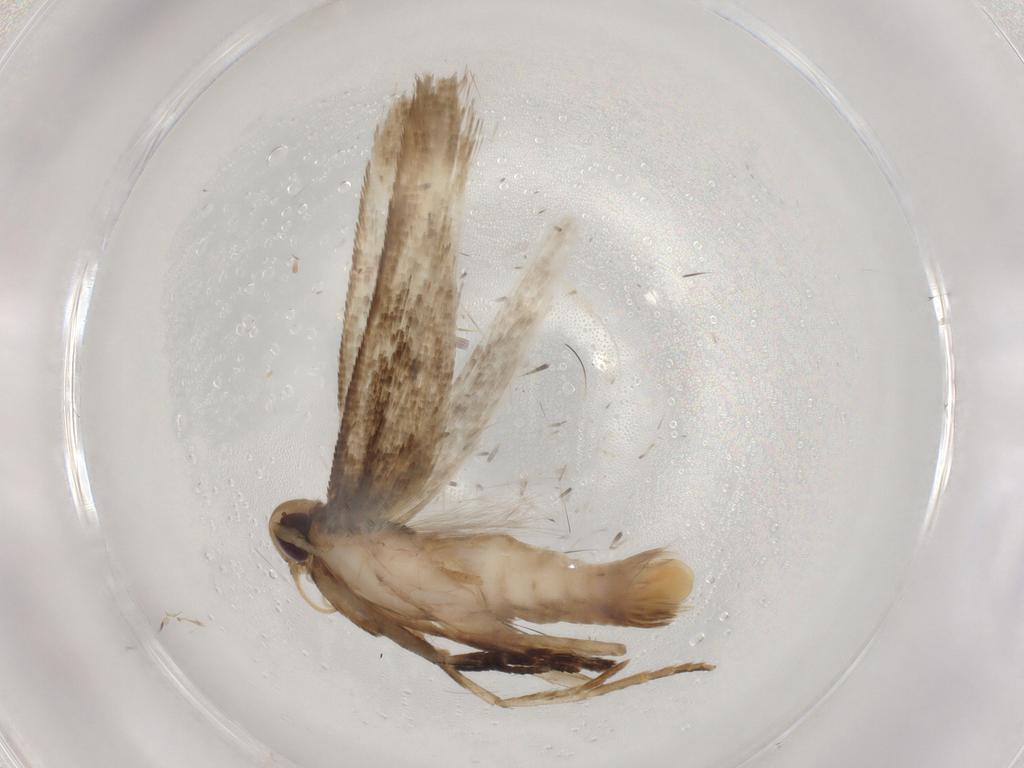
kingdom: Animalia
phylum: Arthropoda
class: Insecta
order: Lepidoptera
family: Cosmopterigidae
